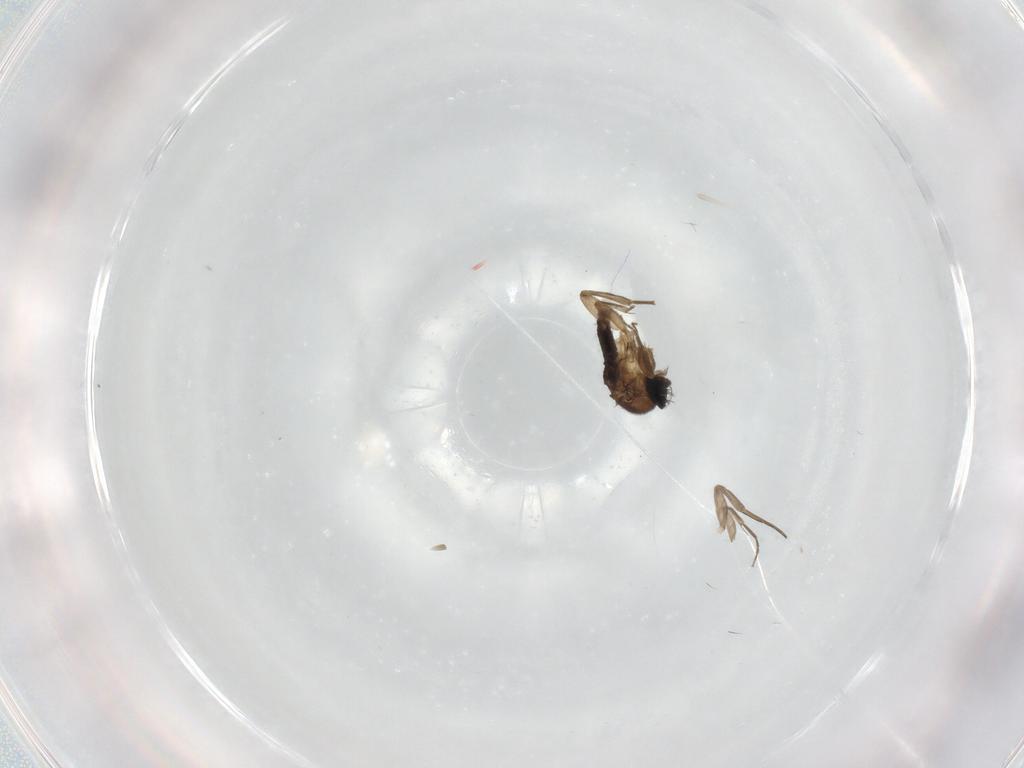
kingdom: Animalia
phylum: Arthropoda
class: Insecta
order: Diptera
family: Phoridae
